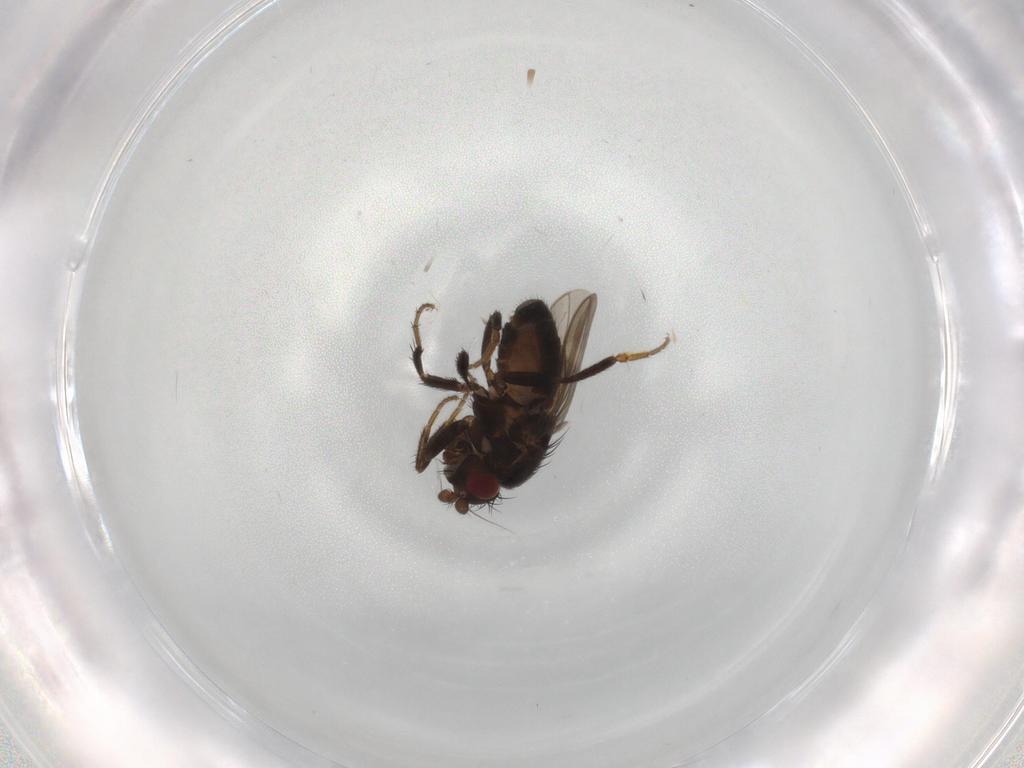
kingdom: Animalia
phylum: Arthropoda
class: Insecta
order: Diptera
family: Sphaeroceridae
